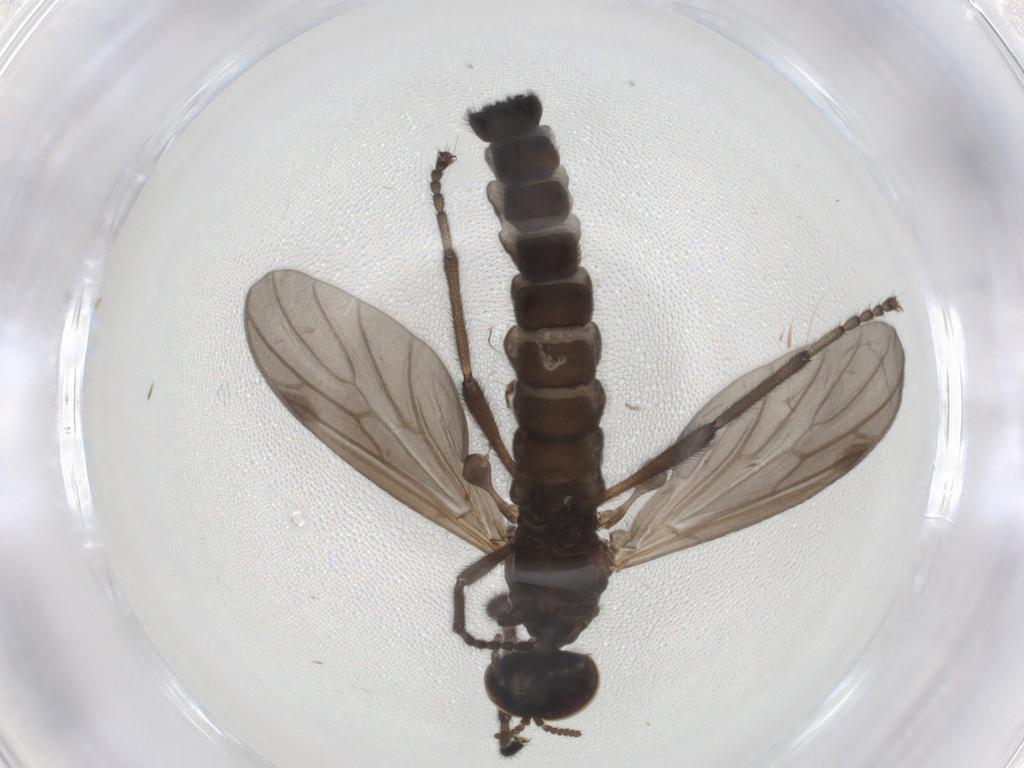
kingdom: Animalia
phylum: Arthropoda
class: Insecta
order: Diptera
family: Bibionidae
